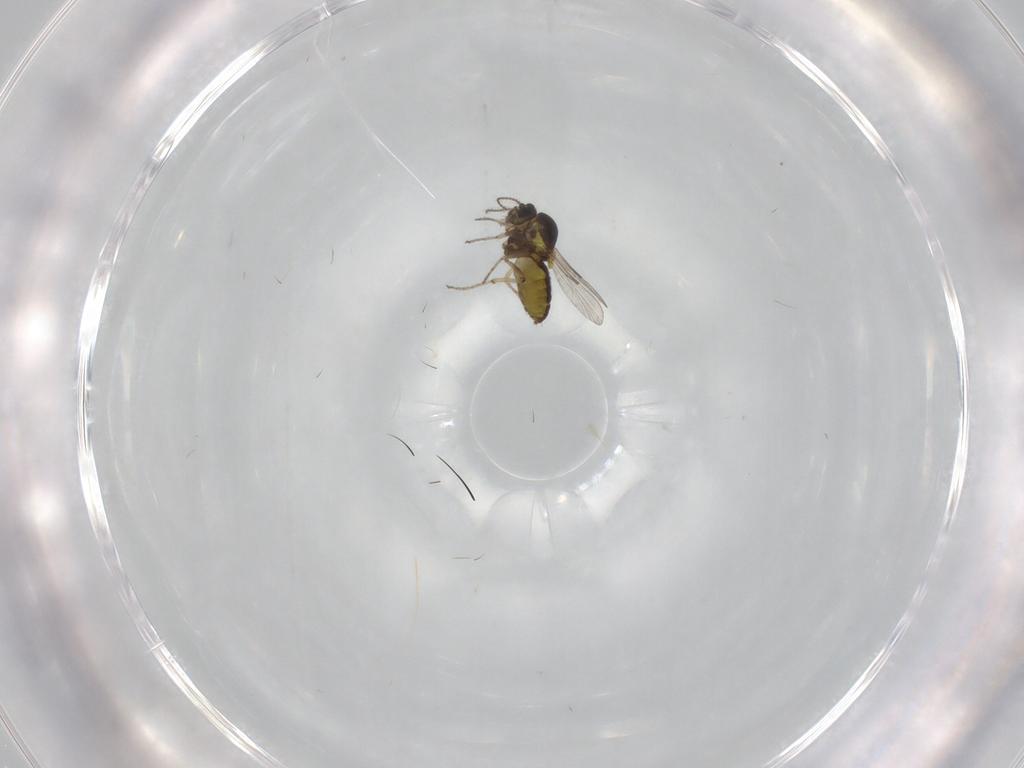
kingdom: Animalia
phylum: Arthropoda
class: Insecta
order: Diptera
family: Ceratopogonidae
